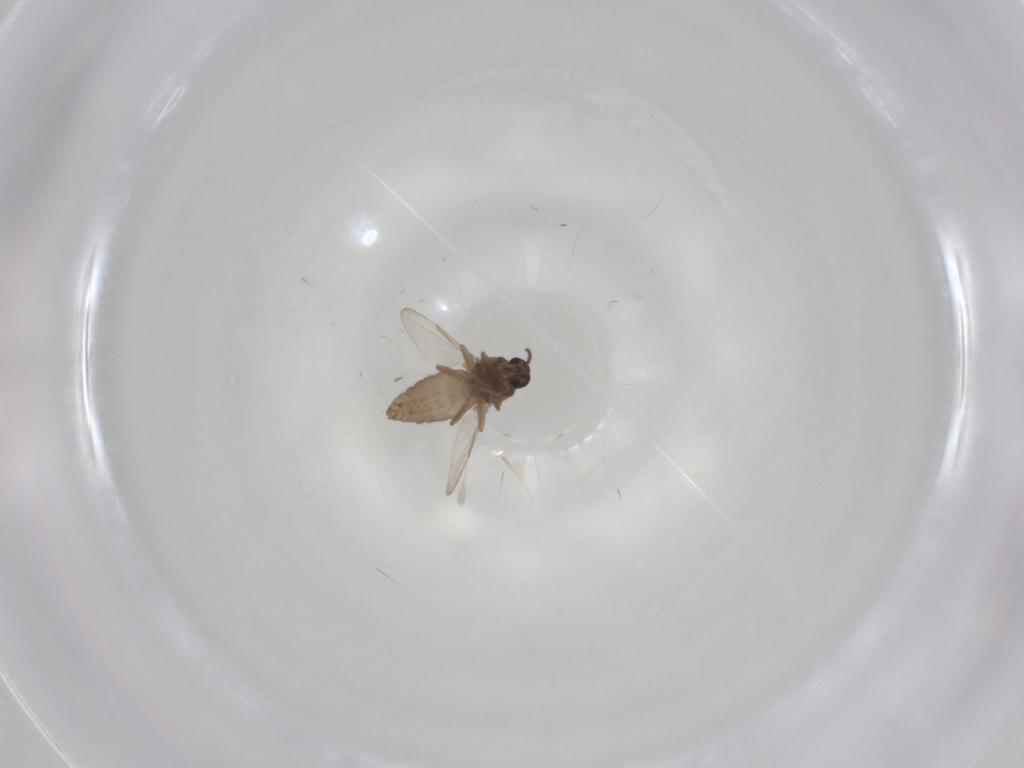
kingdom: Animalia
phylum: Arthropoda
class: Insecta
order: Diptera
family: Ceratopogonidae
